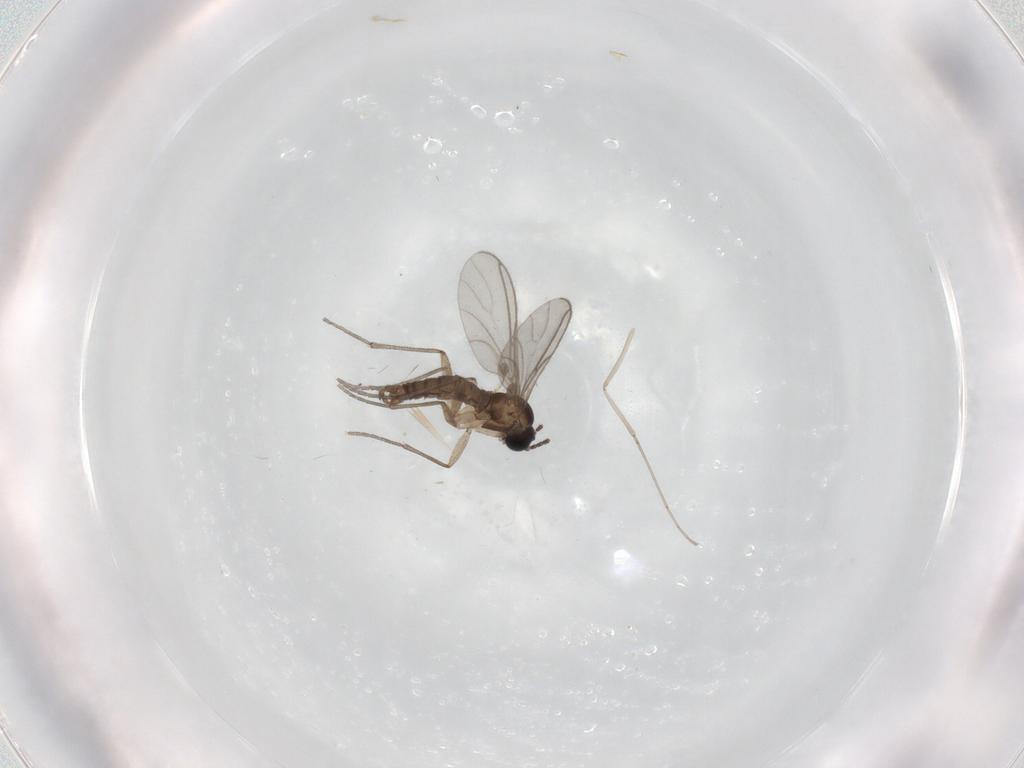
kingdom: Animalia
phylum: Arthropoda
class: Insecta
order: Diptera
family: Sciaridae
